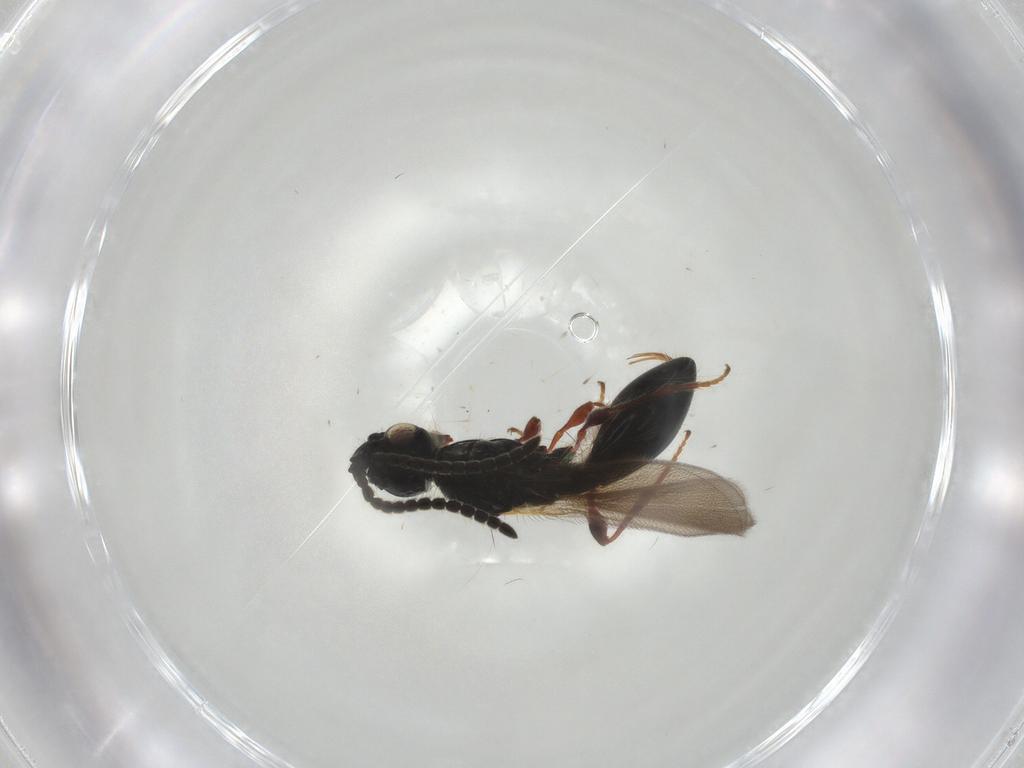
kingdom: Animalia
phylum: Arthropoda
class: Insecta
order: Hymenoptera
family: Diapriidae
